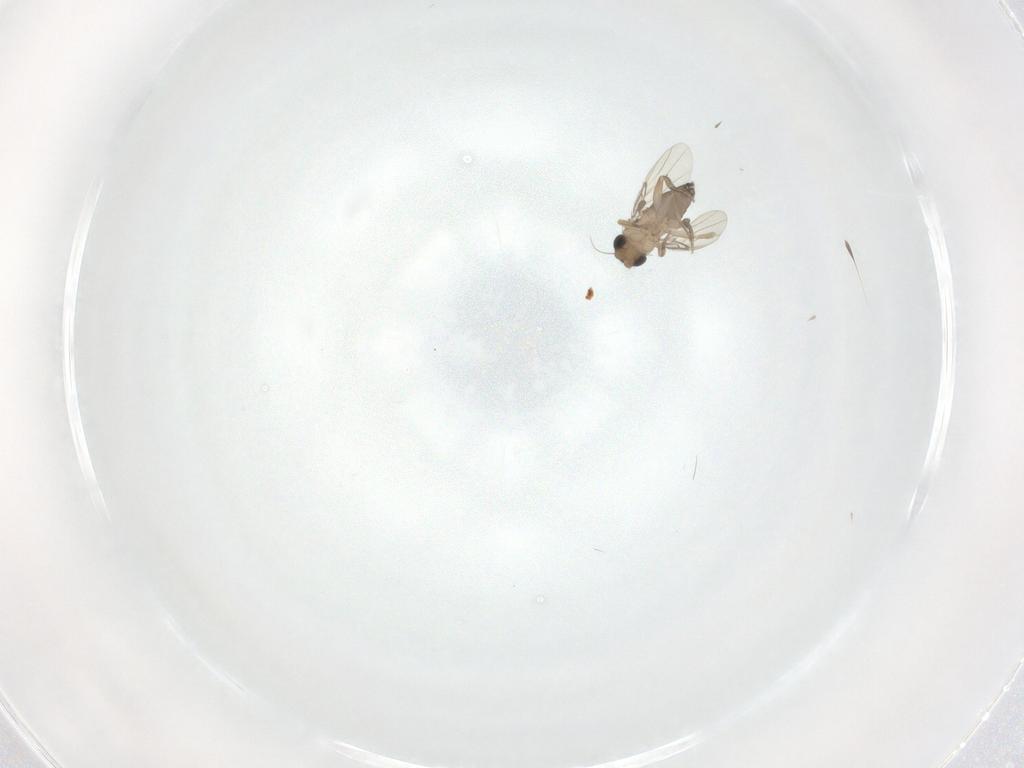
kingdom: Animalia
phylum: Arthropoda
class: Insecta
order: Diptera
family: Phoridae
